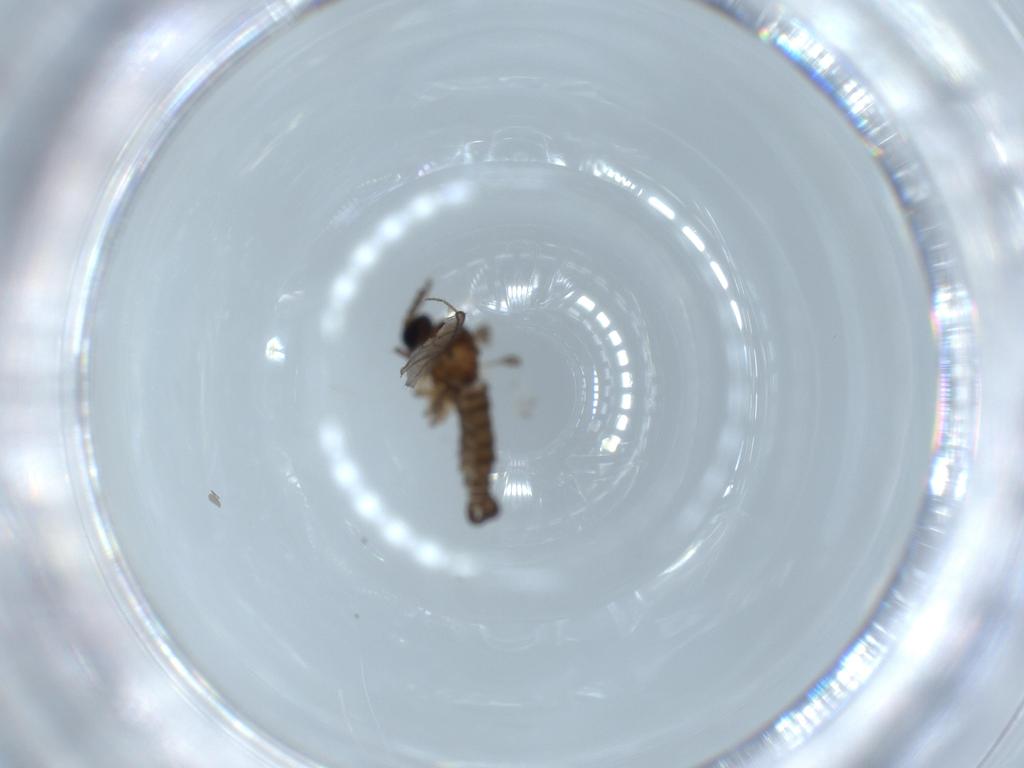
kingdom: Animalia
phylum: Arthropoda
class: Insecta
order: Diptera
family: Sciaridae
